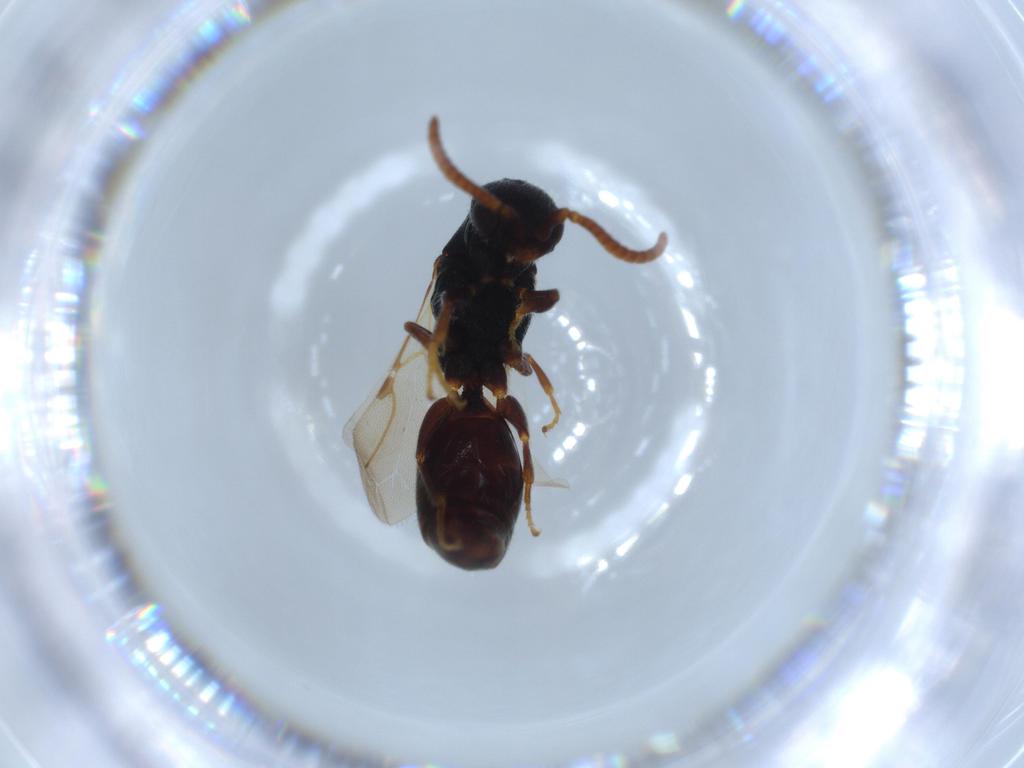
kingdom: Animalia
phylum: Arthropoda
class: Insecta
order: Hymenoptera
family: Bethylidae
